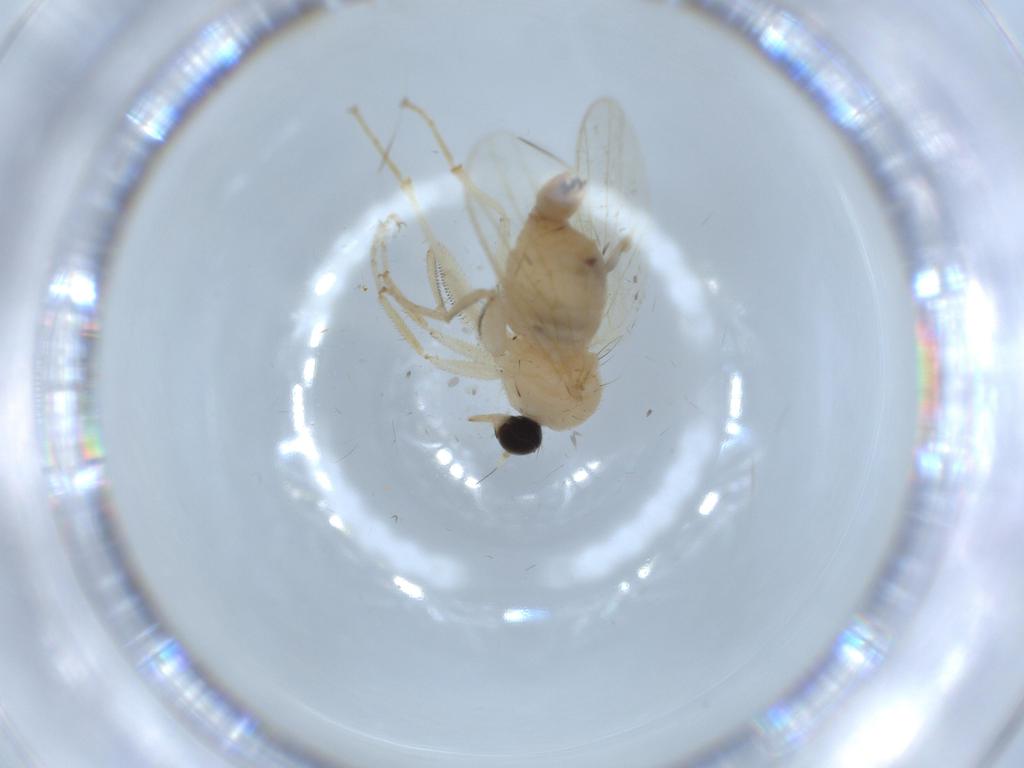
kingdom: Animalia
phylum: Arthropoda
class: Insecta
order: Diptera
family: Hybotidae
